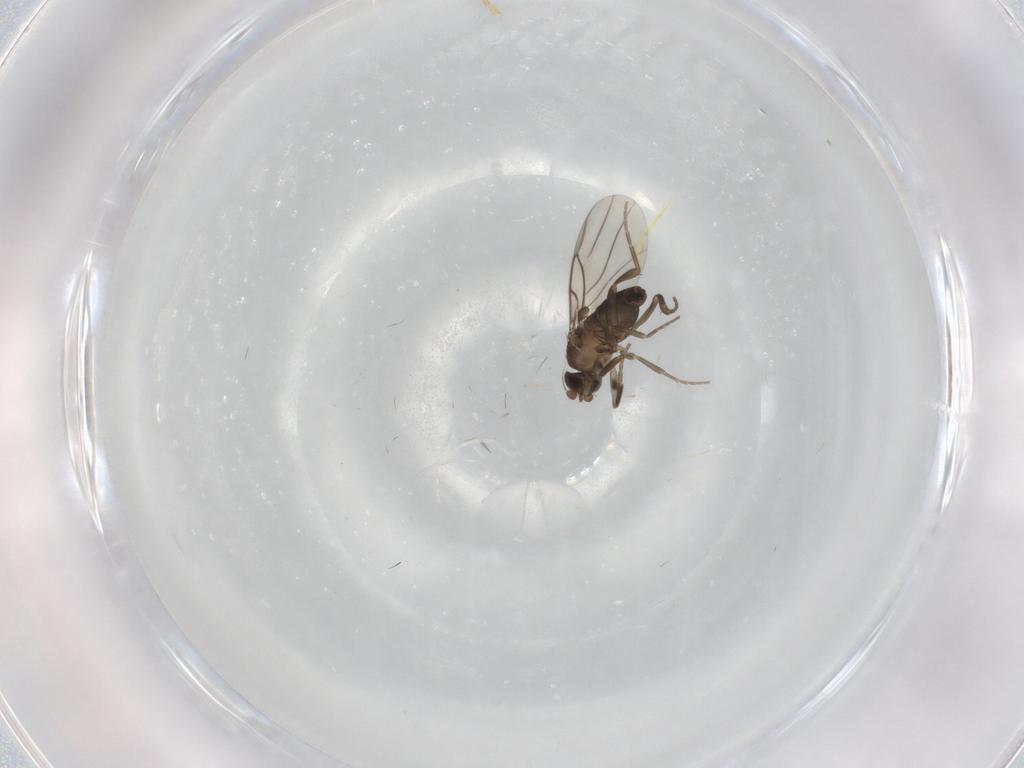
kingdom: Animalia
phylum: Arthropoda
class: Insecta
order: Diptera
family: Phoridae
